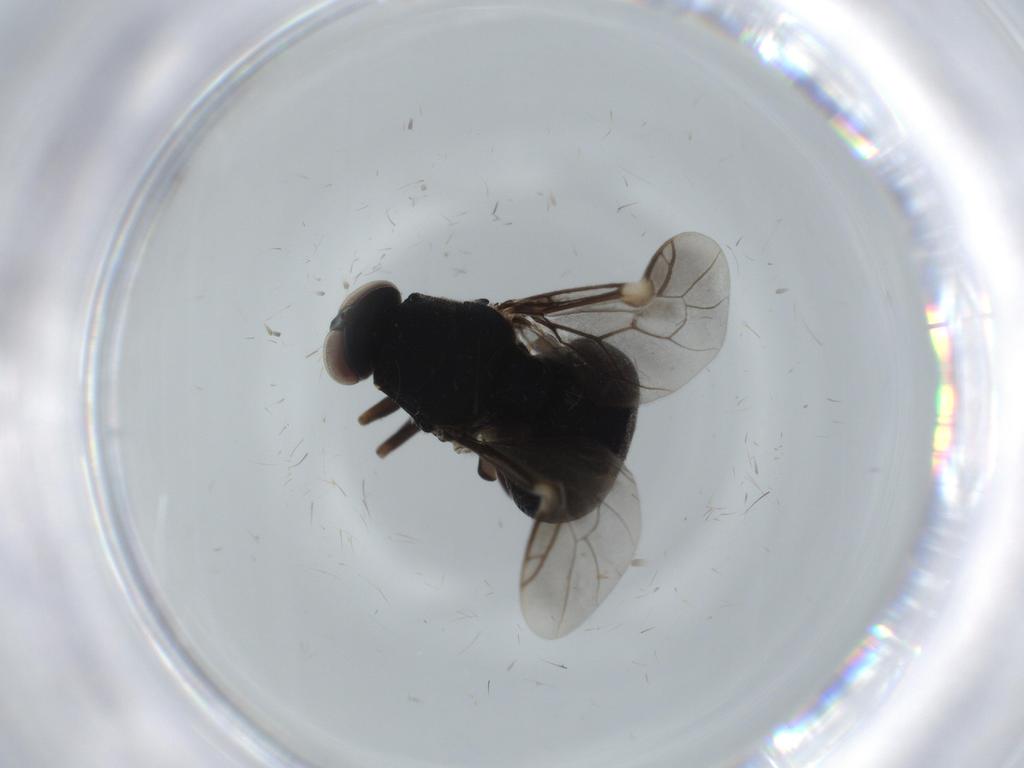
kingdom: Animalia
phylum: Arthropoda
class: Insecta
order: Diptera
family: Stratiomyidae
